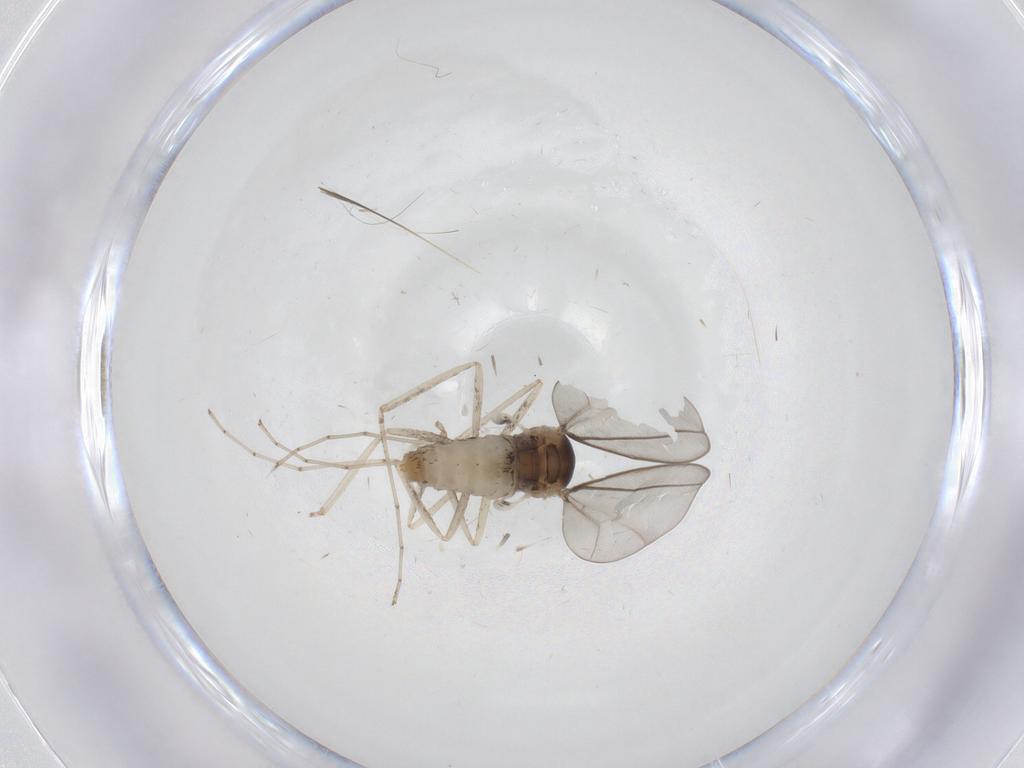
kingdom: Animalia
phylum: Arthropoda
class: Insecta
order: Diptera
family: Cecidomyiidae
